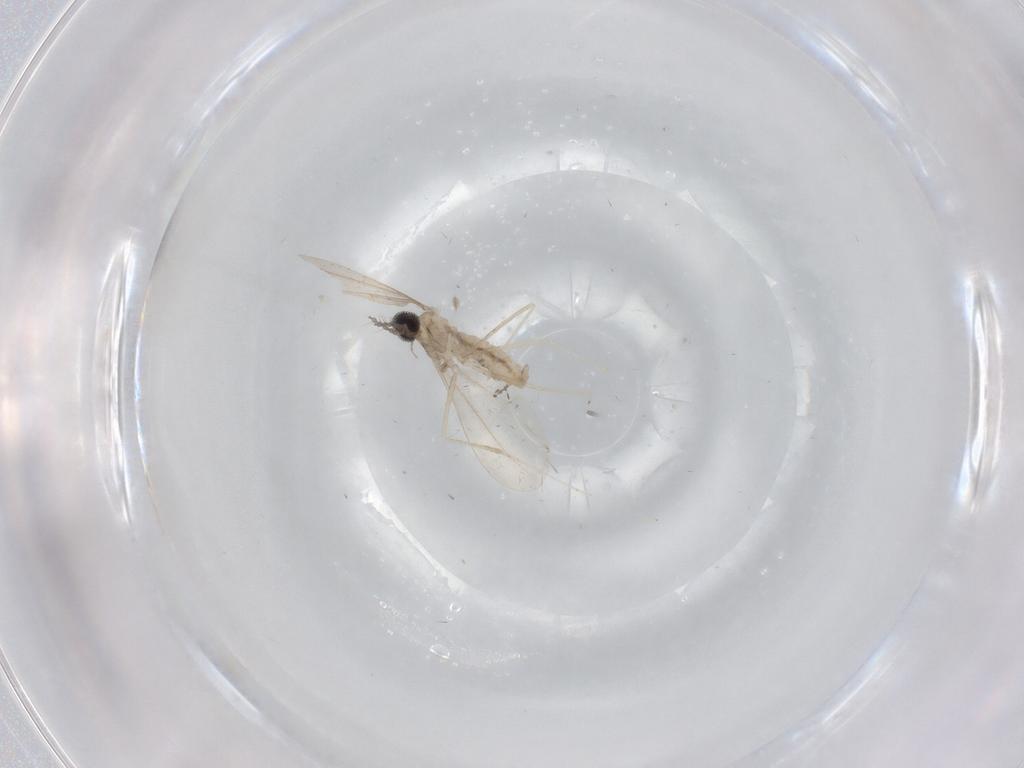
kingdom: Animalia
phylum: Arthropoda
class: Insecta
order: Diptera
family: Cecidomyiidae
